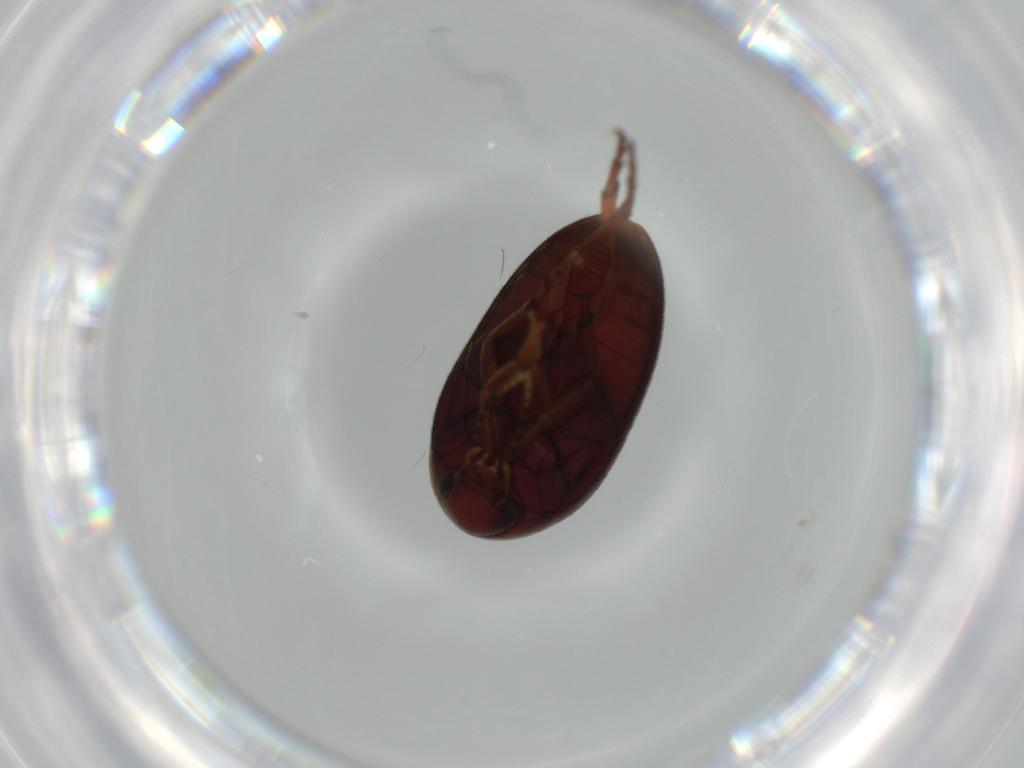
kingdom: Animalia
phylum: Arthropoda
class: Insecta
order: Coleoptera
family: Eucinetidae
